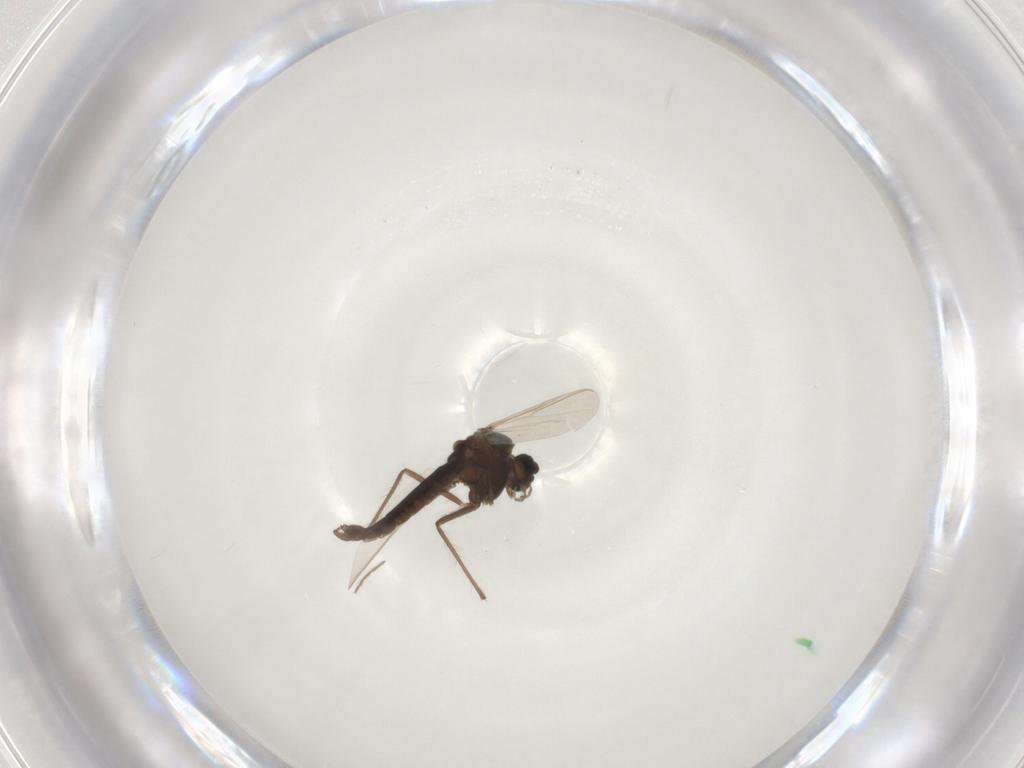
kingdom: Animalia
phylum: Arthropoda
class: Insecta
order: Diptera
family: Chironomidae
